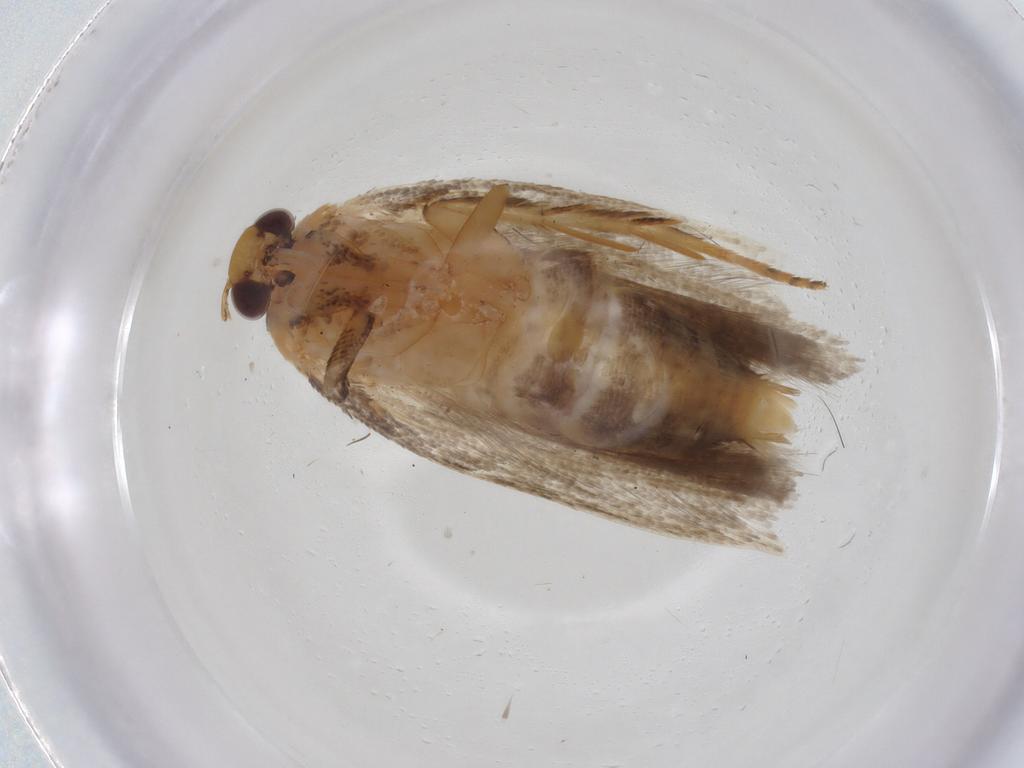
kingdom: Animalia
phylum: Arthropoda
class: Insecta
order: Lepidoptera
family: Gelechiidae
